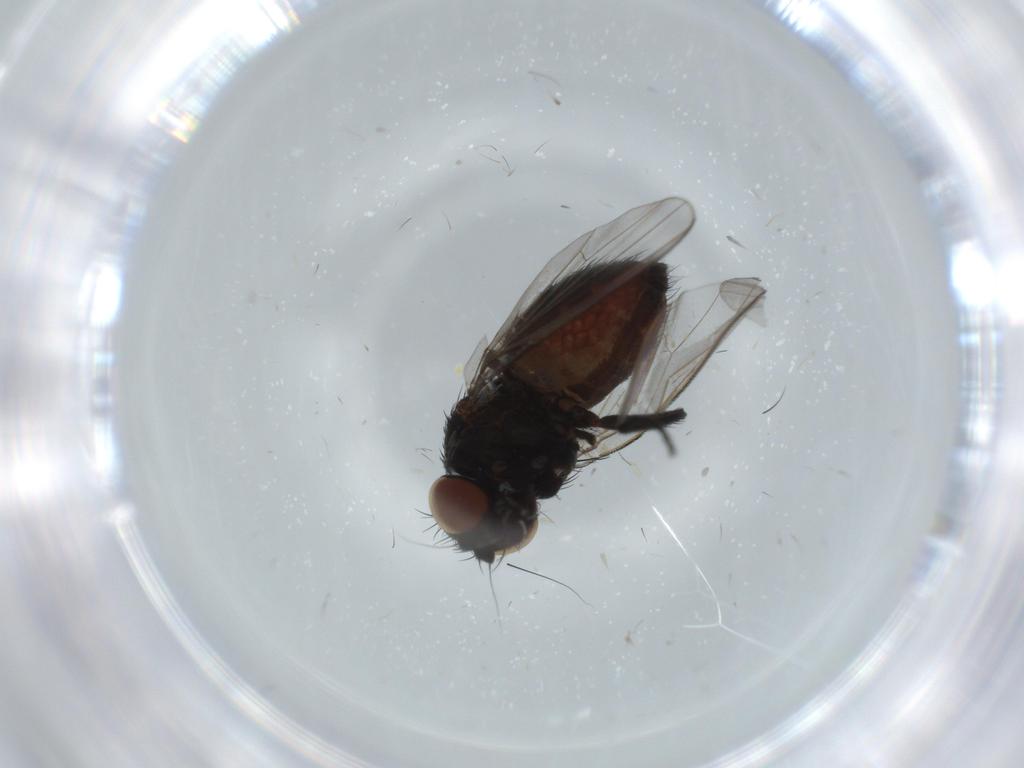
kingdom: Animalia
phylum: Arthropoda
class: Insecta
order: Diptera
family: Milichiidae
